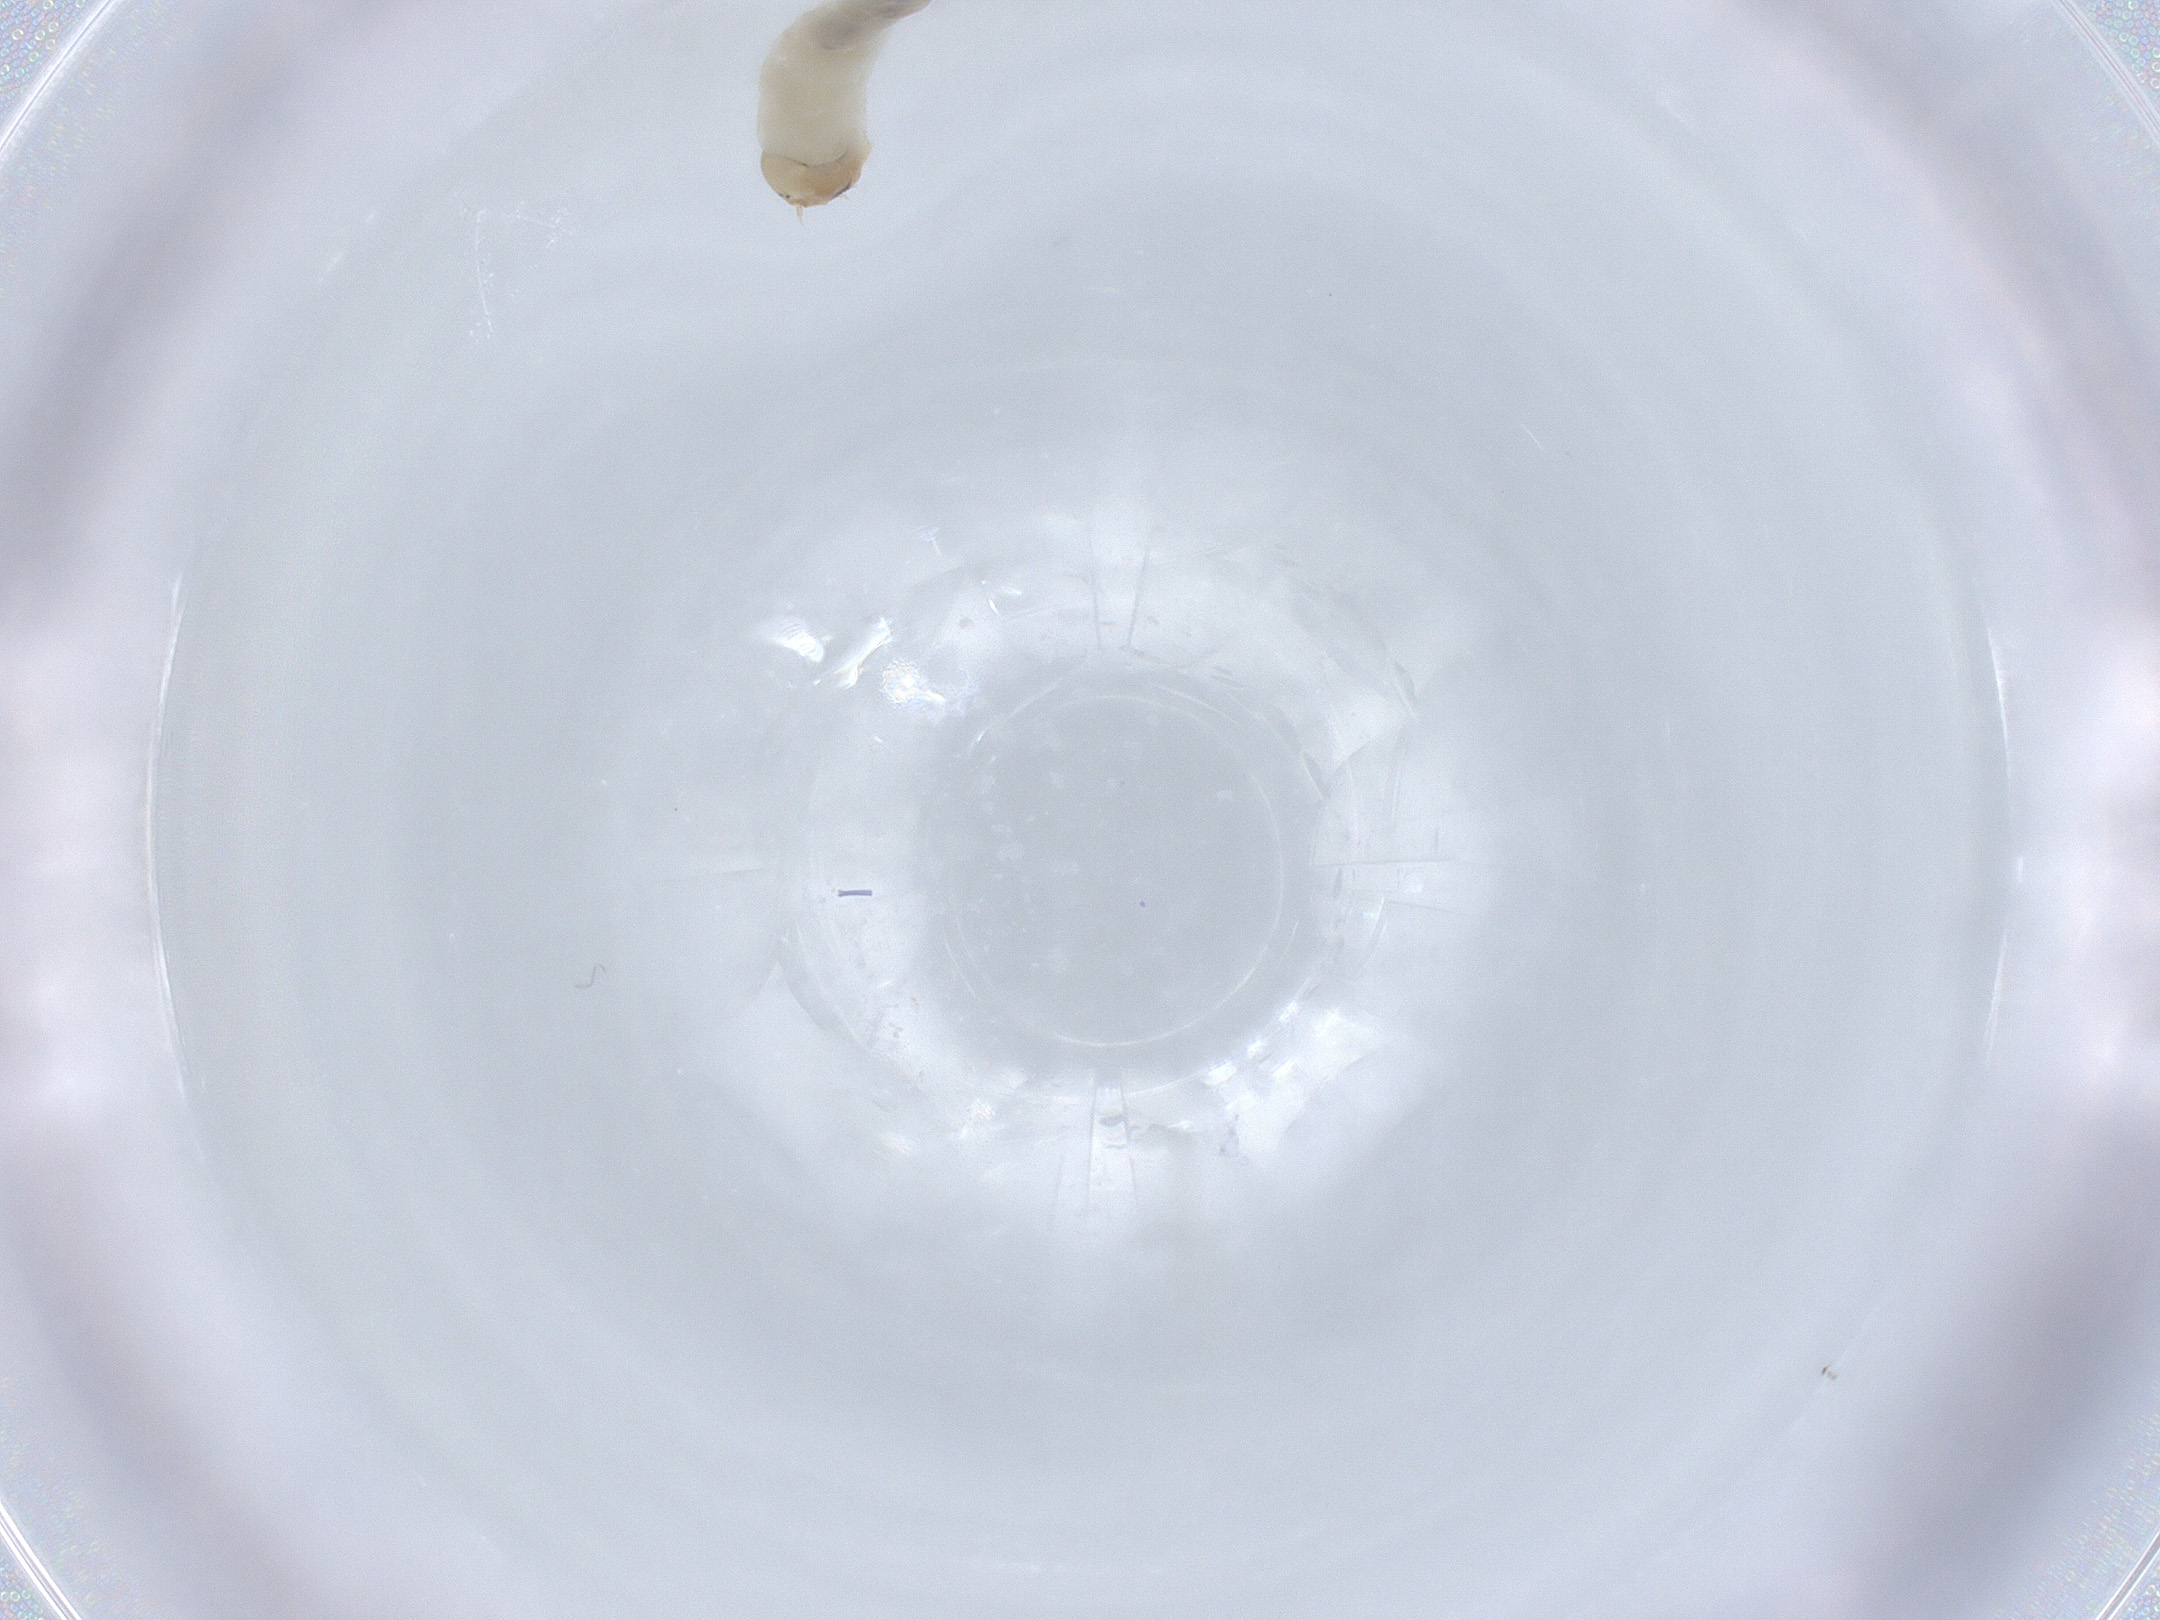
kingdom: Animalia
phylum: Arthropoda
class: Insecta
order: Diptera
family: Chironomidae
